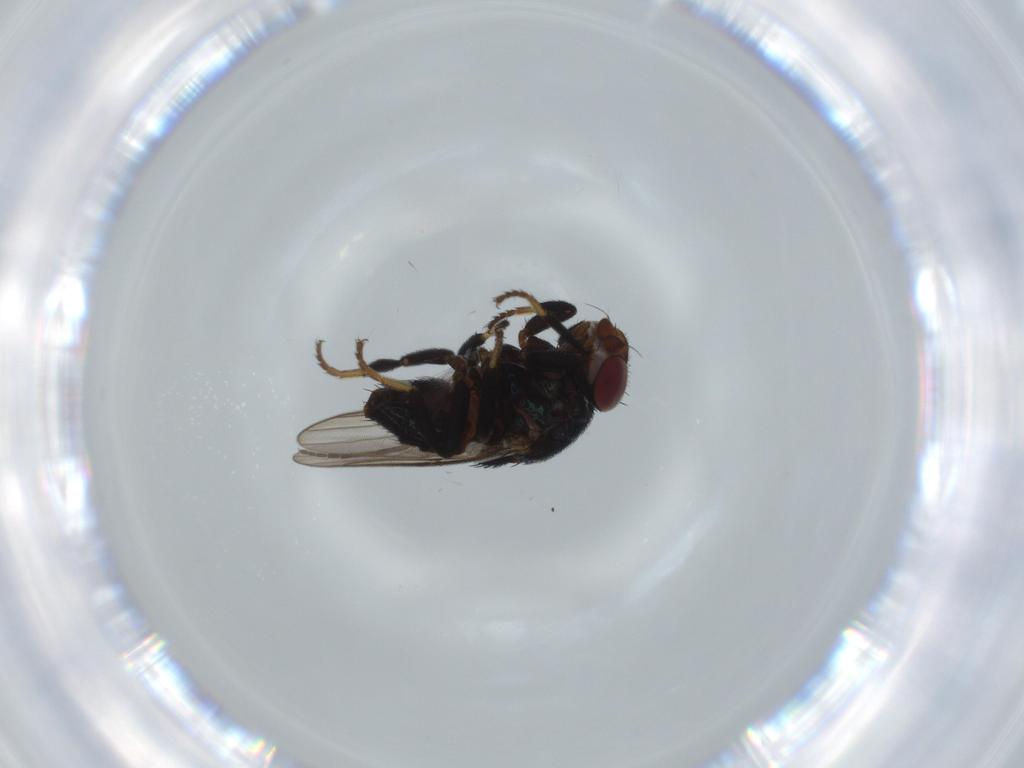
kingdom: Animalia
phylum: Arthropoda
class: Insecta
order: Diptera
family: Chloropidae
